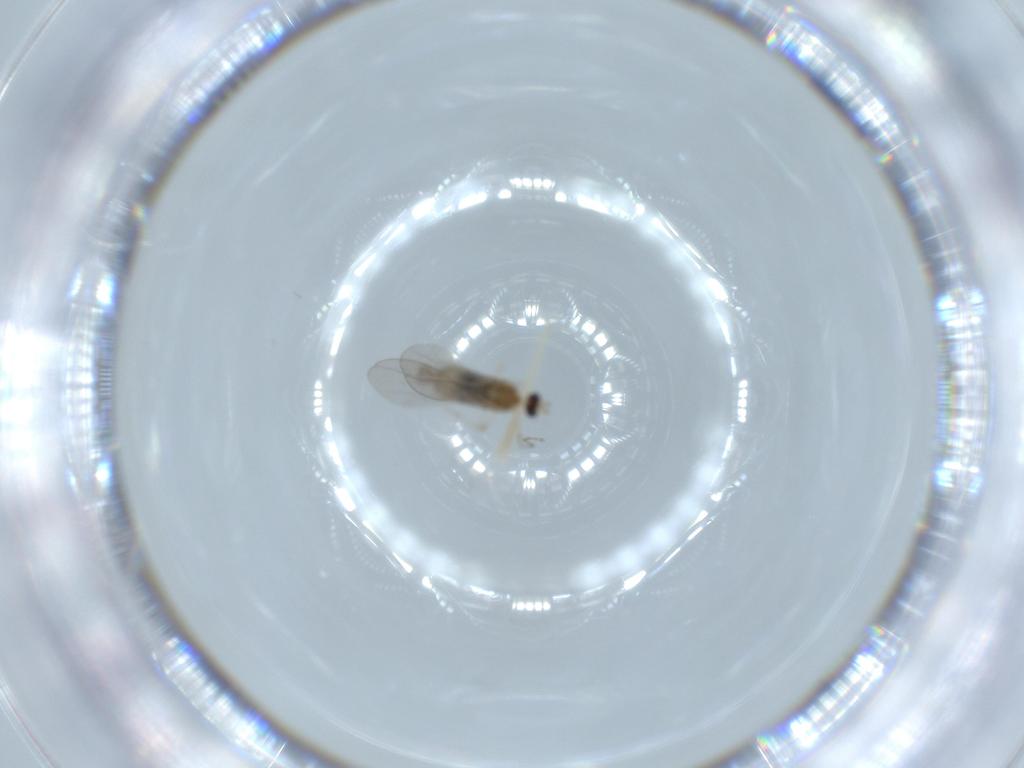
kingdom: Animalia
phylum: Arthropoda
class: Insecta
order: Diptera
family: Cecidomyiidae
